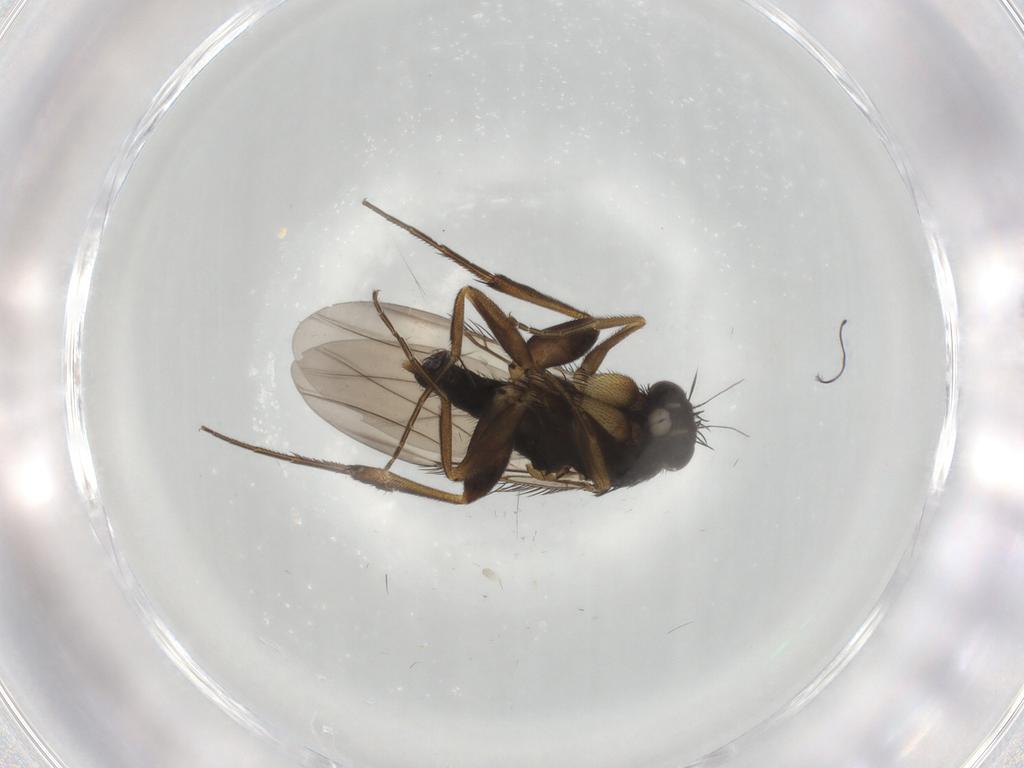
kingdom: Animalia
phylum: Arthropoda
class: Insecta
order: Diptera
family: Phoridae
